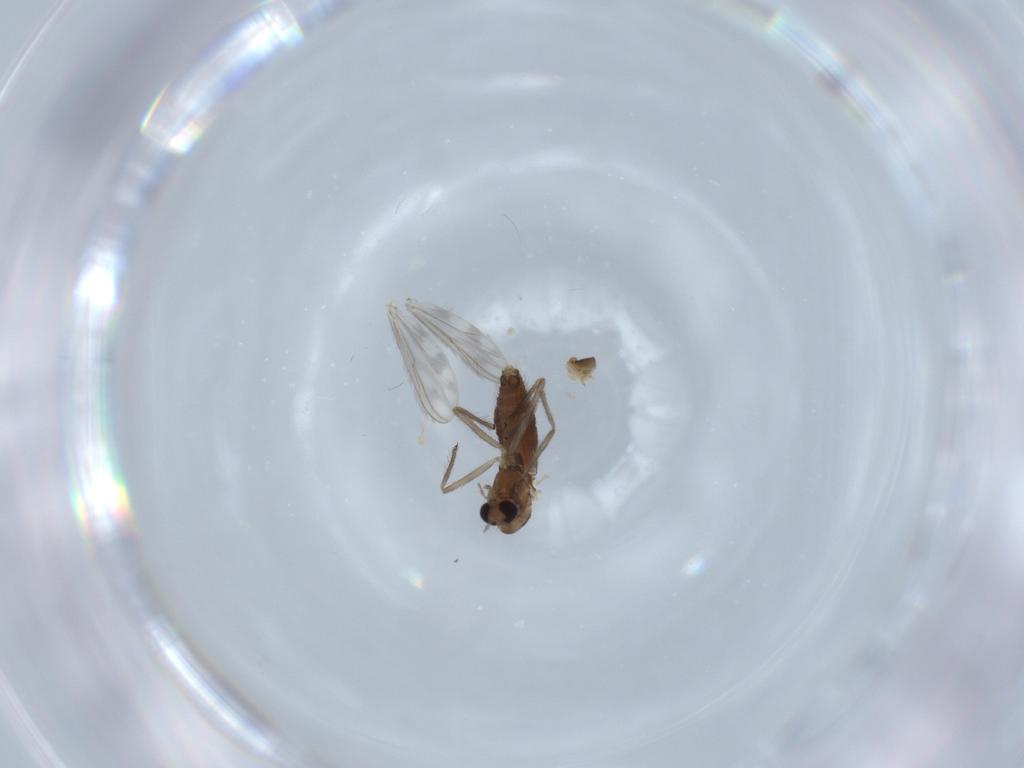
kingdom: Animalia
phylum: Arthropoda
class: Insecta
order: Diptera
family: Chironomidae
